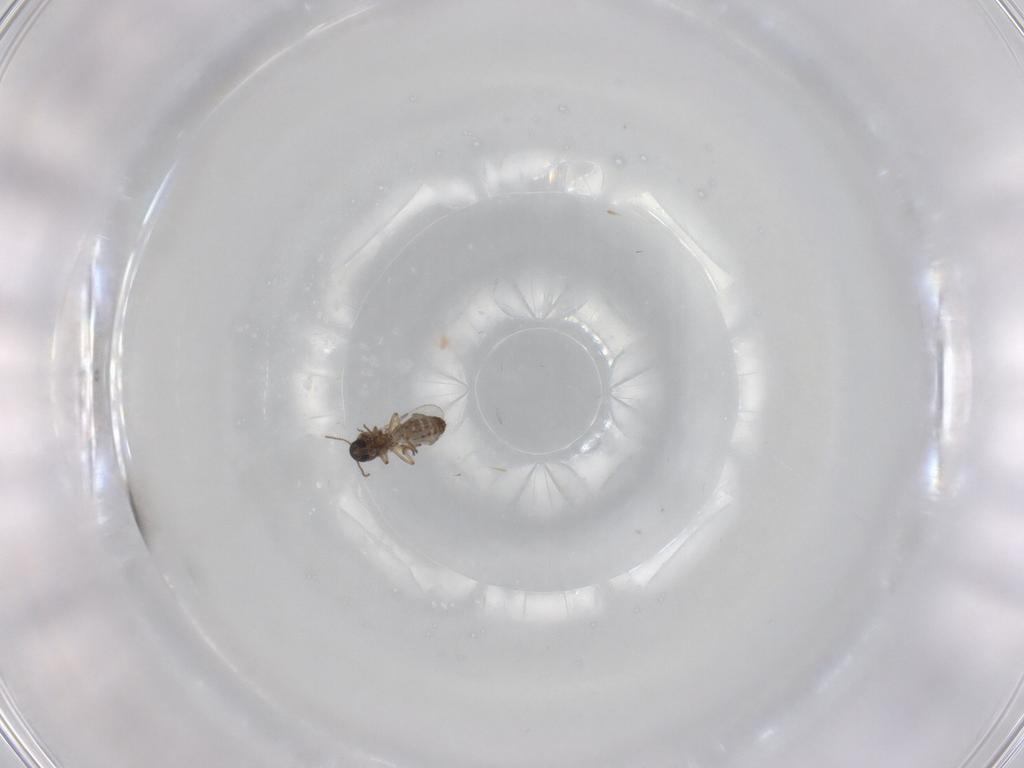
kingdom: Animalia
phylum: Arthropoda
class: Insecta
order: Diptera
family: Ceratopogonidae
